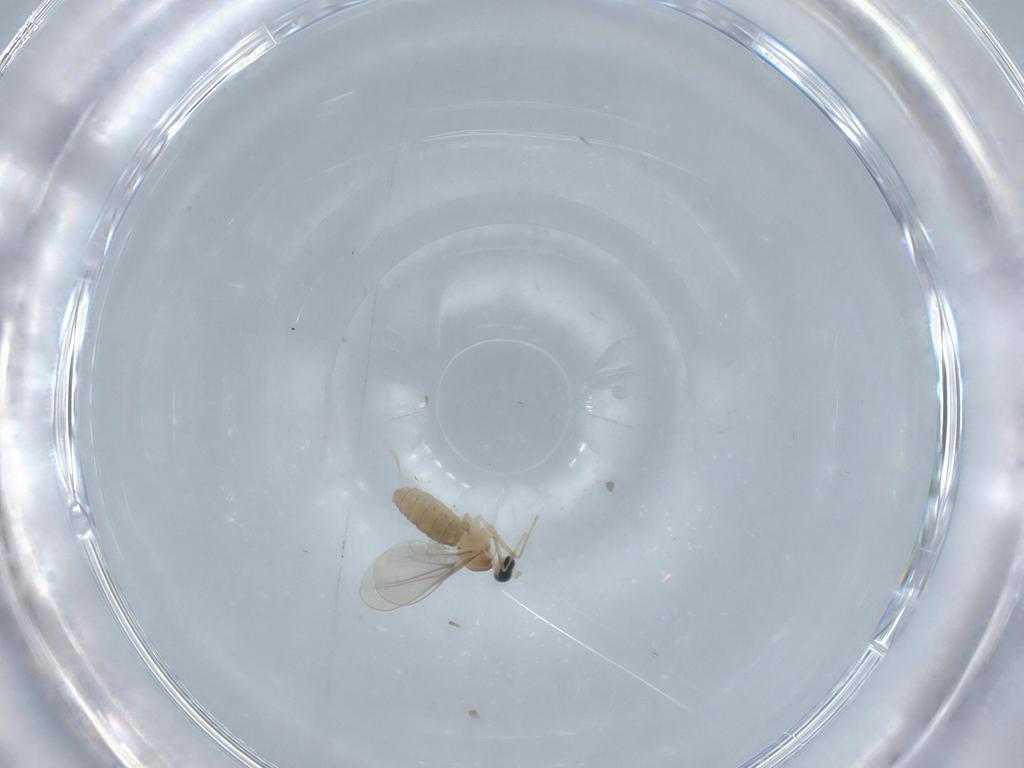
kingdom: Animalia
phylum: Arthropoda
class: Insecta
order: Diptera
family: Cecidomyiidae
